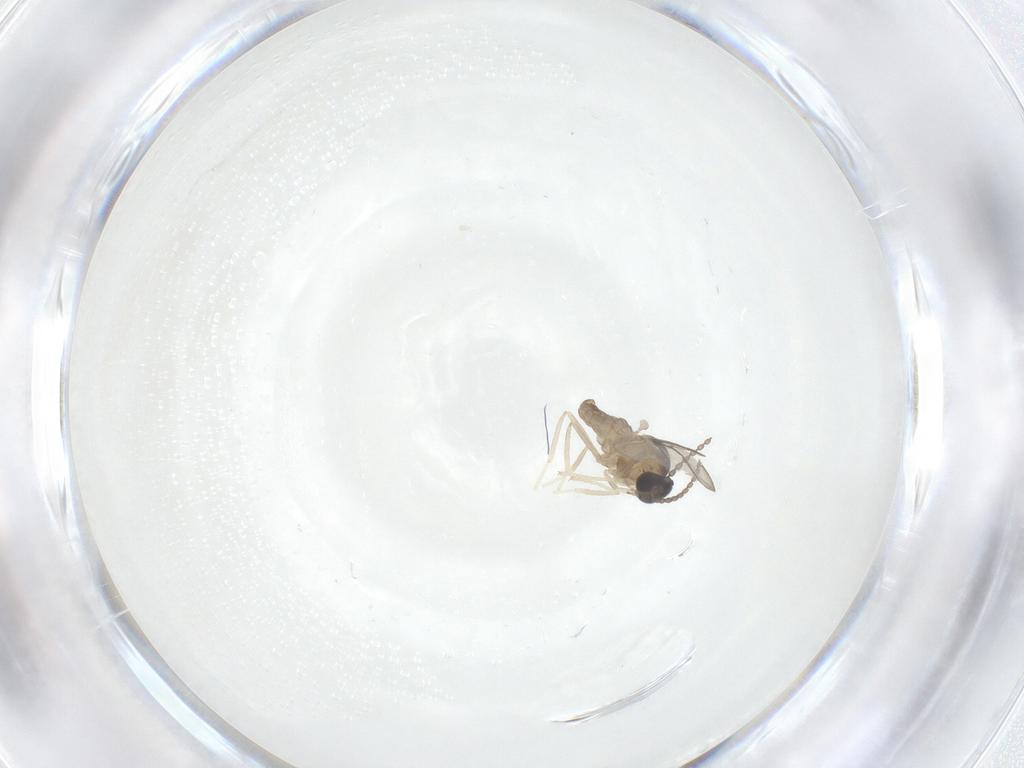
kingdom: Animalia
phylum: Arthropoda
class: Insecta
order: Diptera
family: Cecidomyiidae
